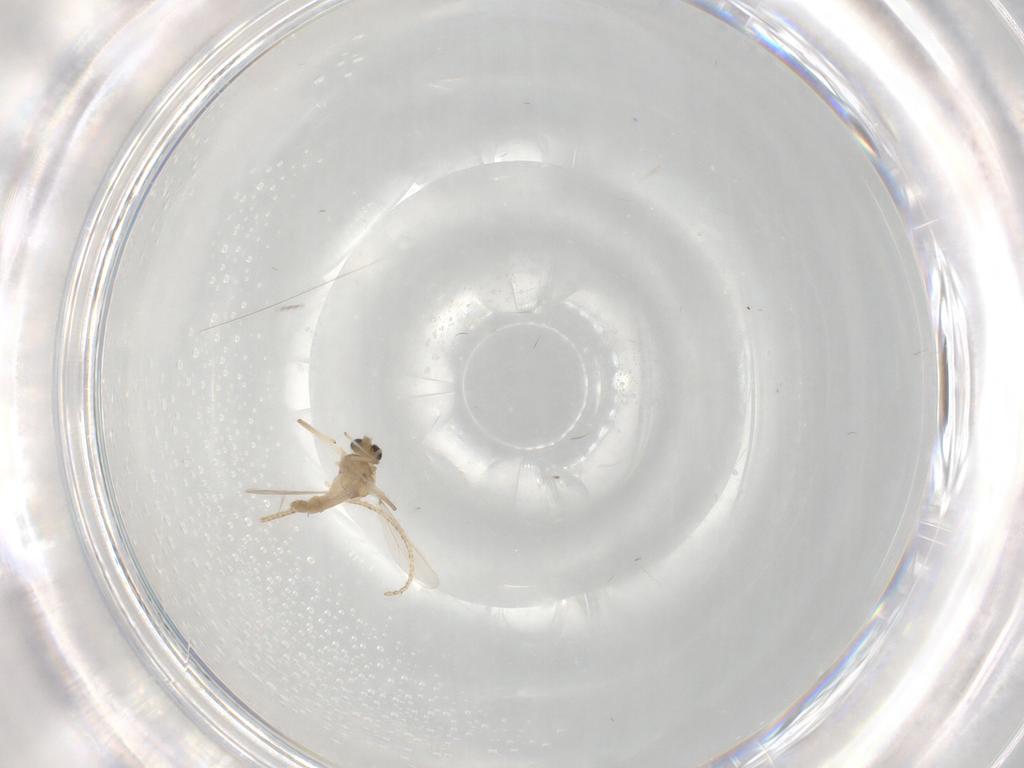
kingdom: Animalia
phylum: Arthropoda
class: Insecta
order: Diptera
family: Chironomidae
